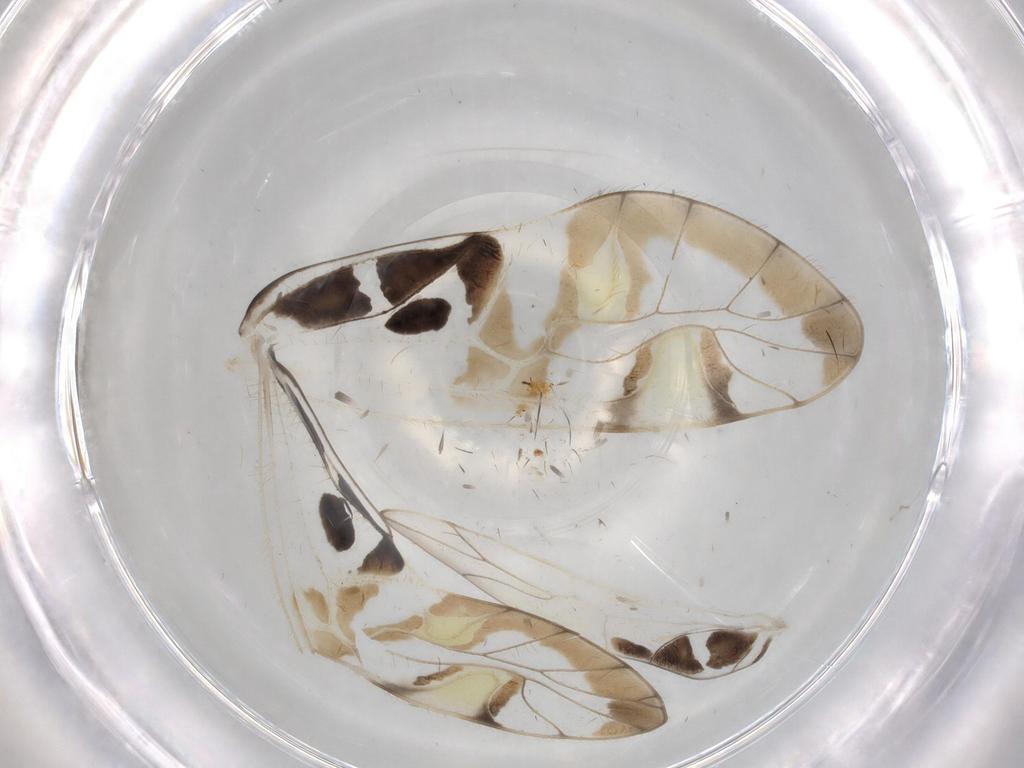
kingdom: Animalia
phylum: Arthropoda
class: Insecta
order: Psocodea
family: Amphipsocidae
